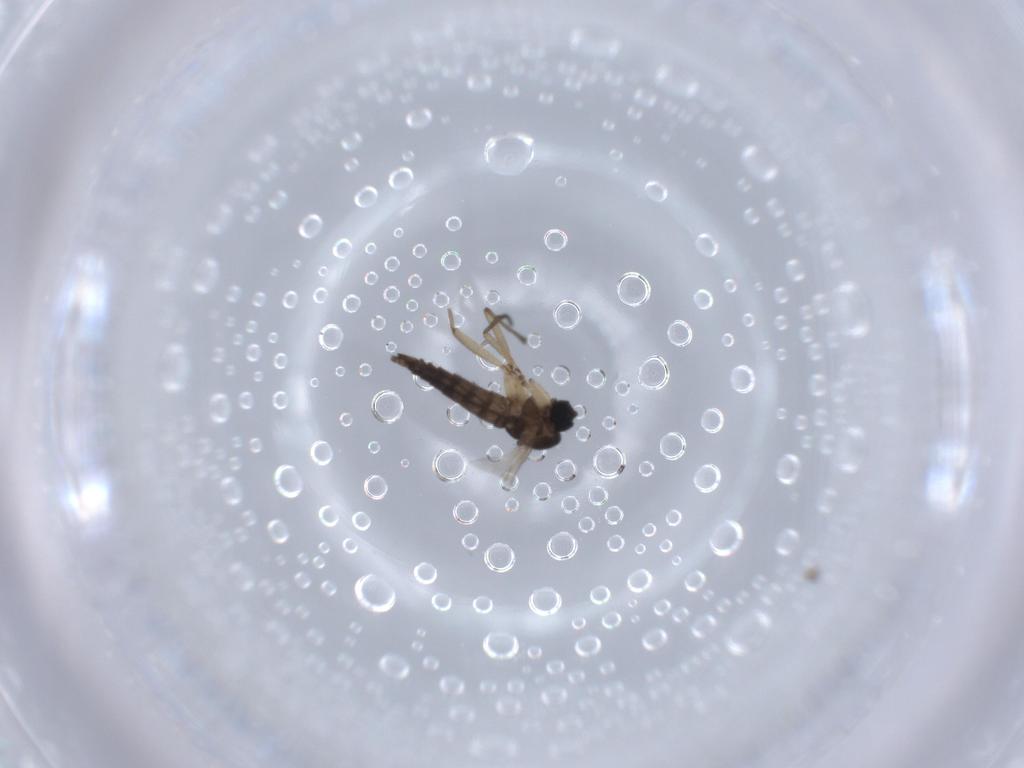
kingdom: Animalia
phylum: Arthropoda
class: Insecta
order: Diptera
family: Sciaridae
